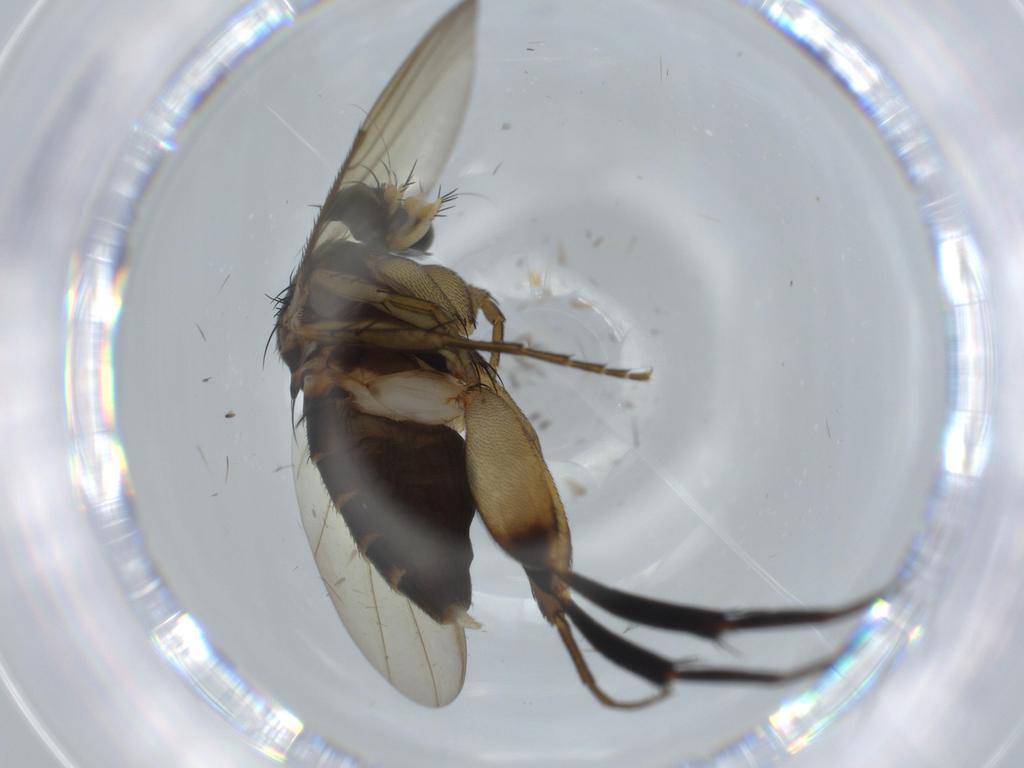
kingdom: Animalia
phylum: Arthropoda
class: Insecta
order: Diptera
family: Phoridae
